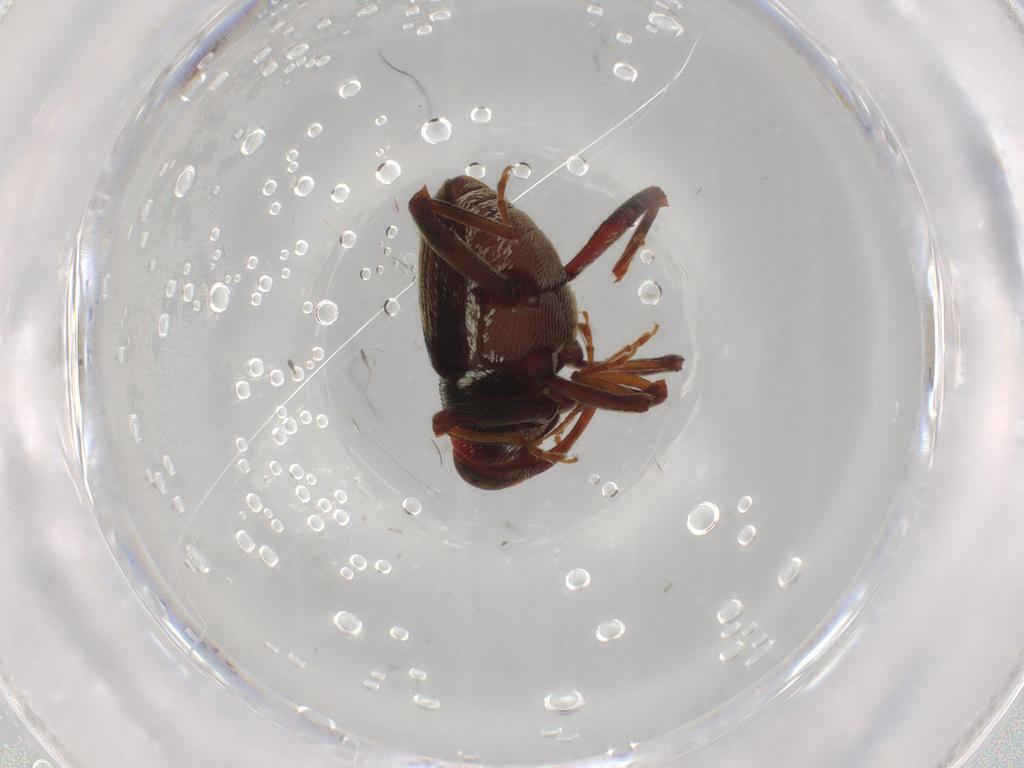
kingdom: Animalia
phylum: Arthropoda
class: Insecta
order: Coleoptera
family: Curculionidae
